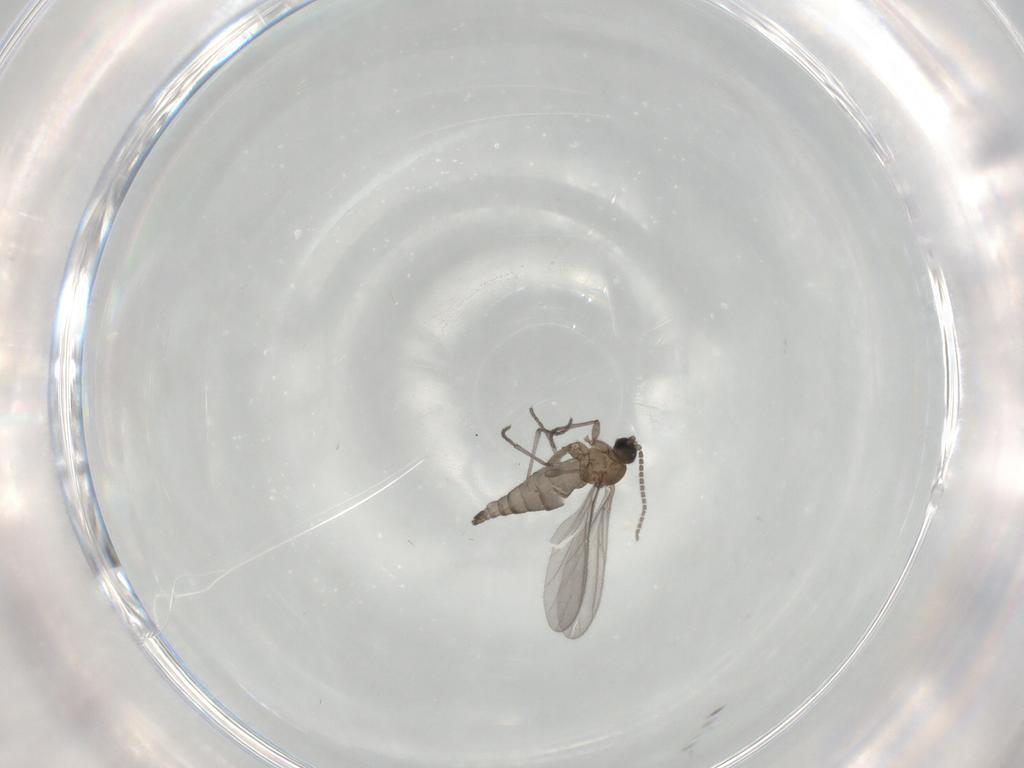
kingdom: Animalia
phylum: Arthropoda
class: Insecta
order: Diptera
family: Sciaridae
